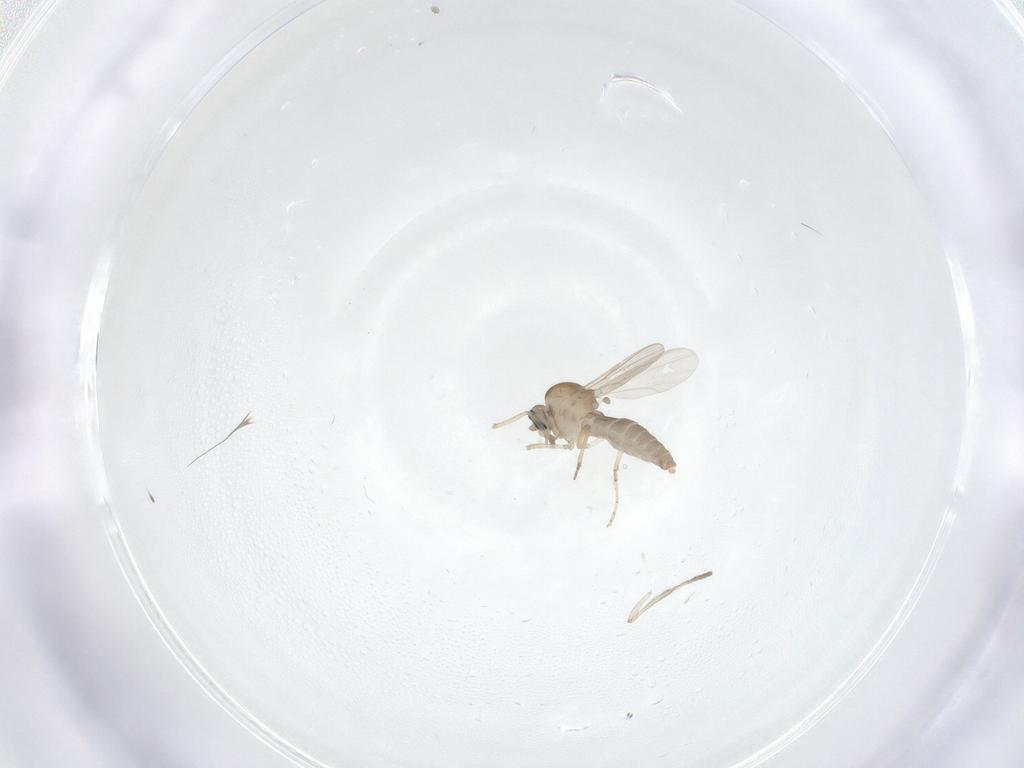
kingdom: Animalia
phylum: Arthropoda
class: Insecta
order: Diptera
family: Ceratopogonidae
